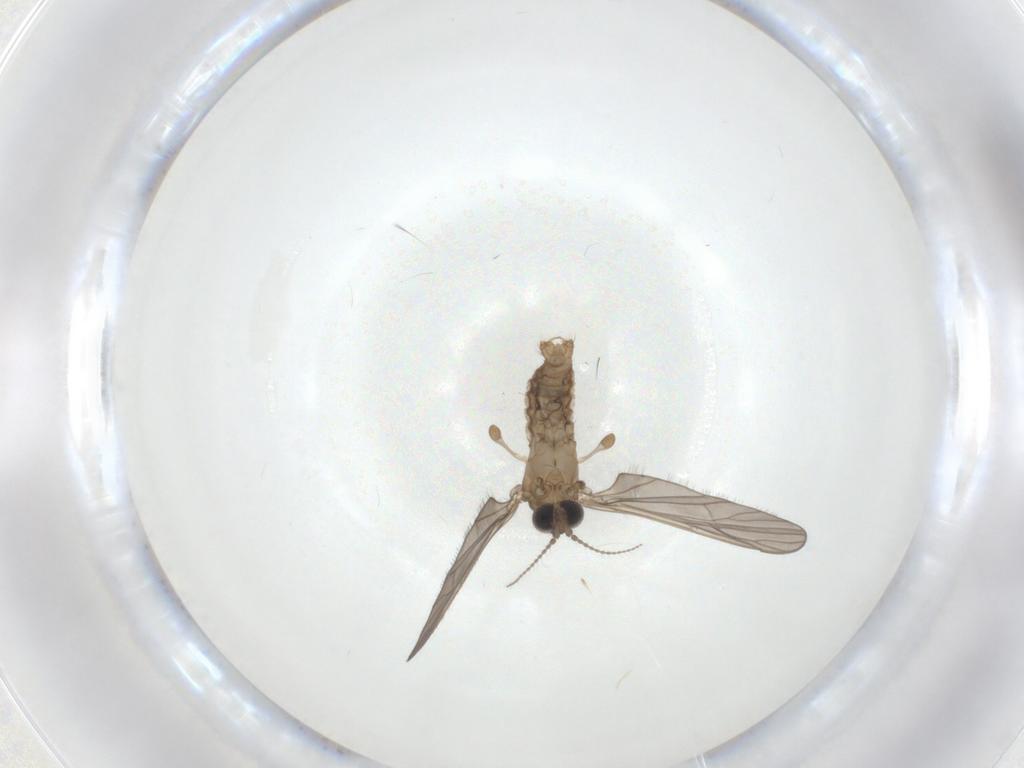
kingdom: Animalia
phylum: Arthropoda
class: Insecta
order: Diptera
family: Limoniidae
